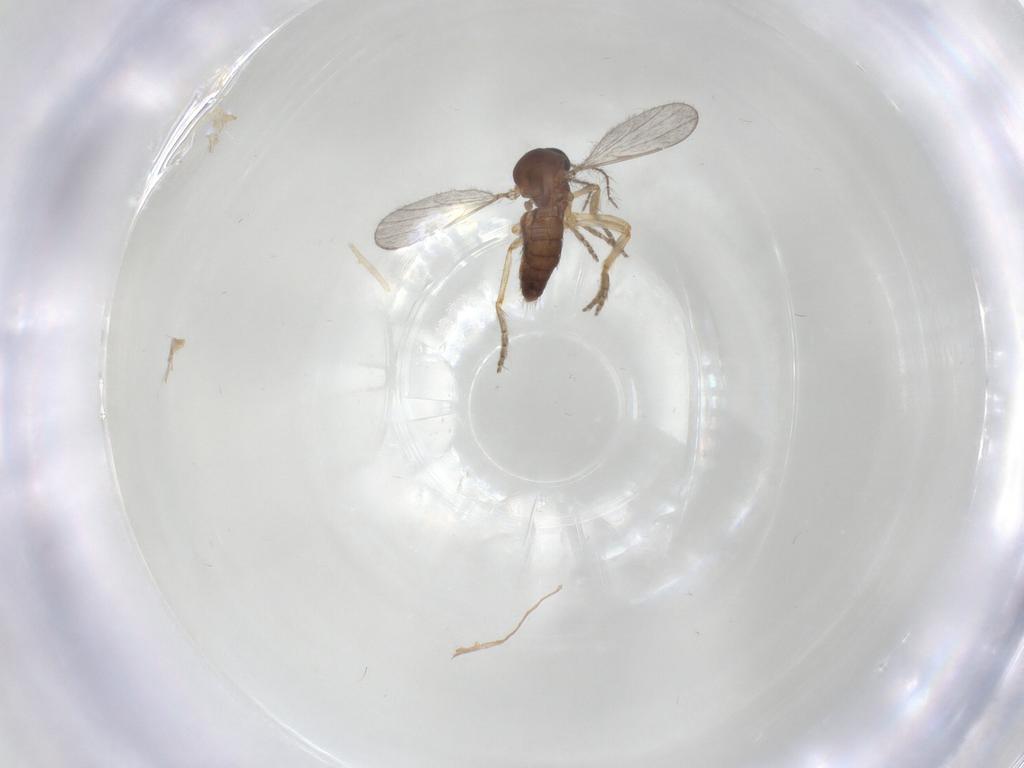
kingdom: Animalia
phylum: Arthropoda
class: Insecta
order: Diptera
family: Ceratopogonidae
